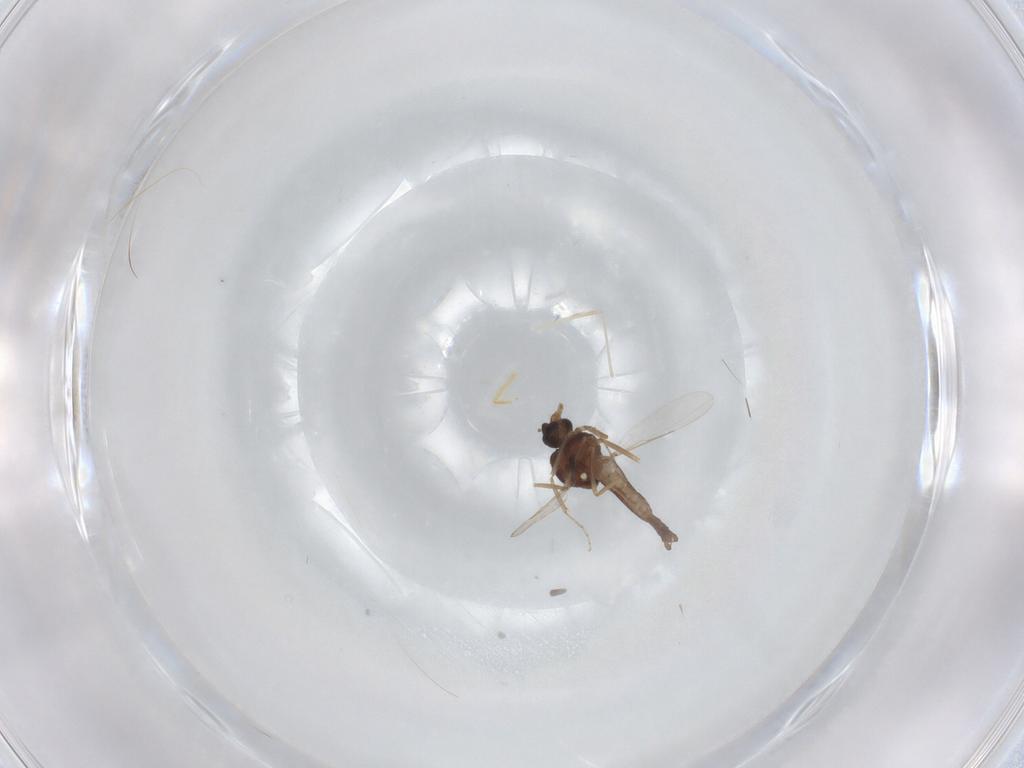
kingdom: Animalia
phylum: Arthropoda
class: Insecta
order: Diptera
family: Ceratopogonidae
